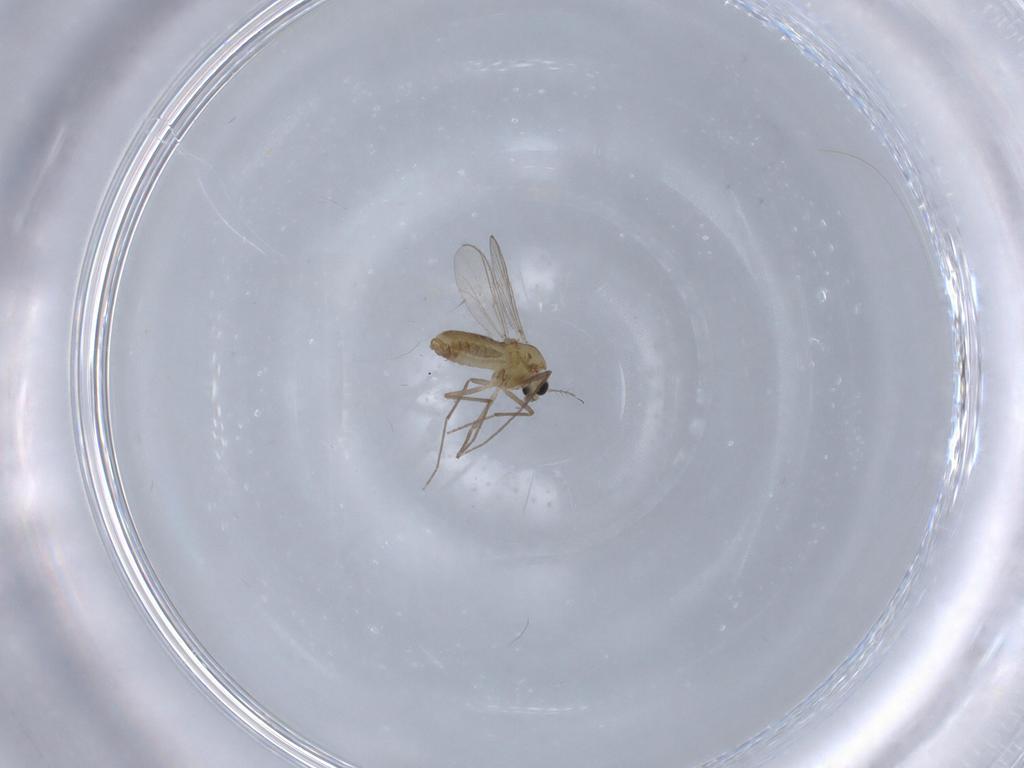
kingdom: Animalia
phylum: Arthropoda
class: Insecta
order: Diptera
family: Chironomidae
